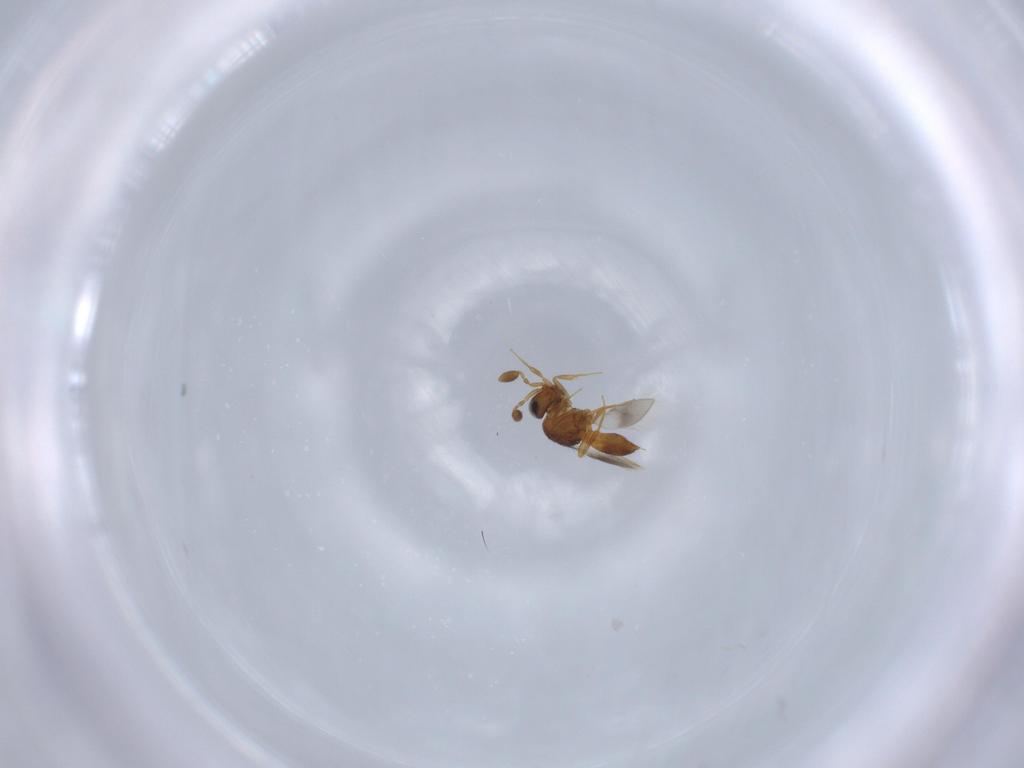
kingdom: Animalia
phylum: Arthropoda
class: Insecta
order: Hymenoptera
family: Scelionidae
